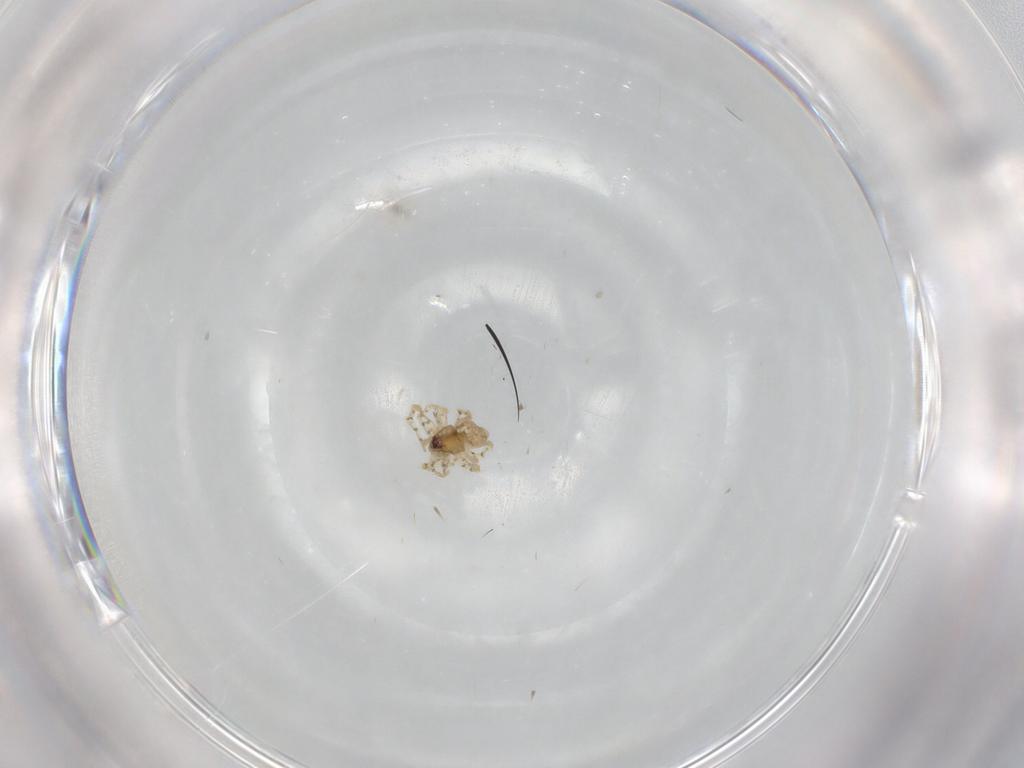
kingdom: Animalia
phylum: Arthropoda
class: Arachnida
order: Araneae
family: Theridiidae
